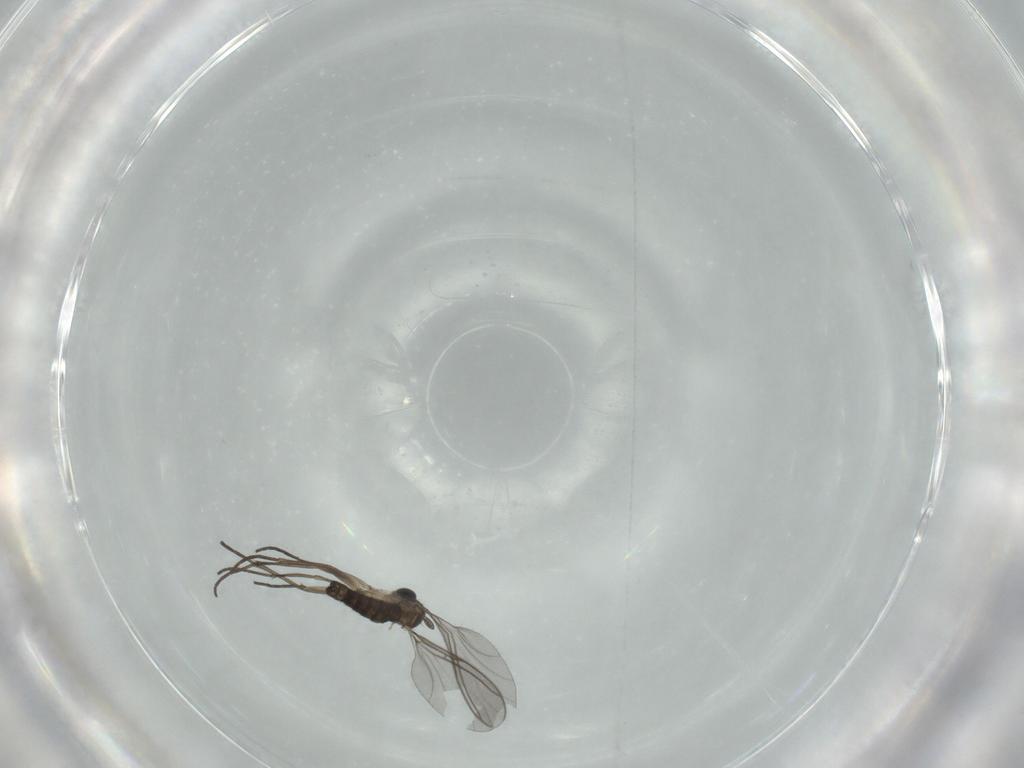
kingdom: Animalia
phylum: Arthropoda
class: Insecta
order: Diptera
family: Sciaridae
